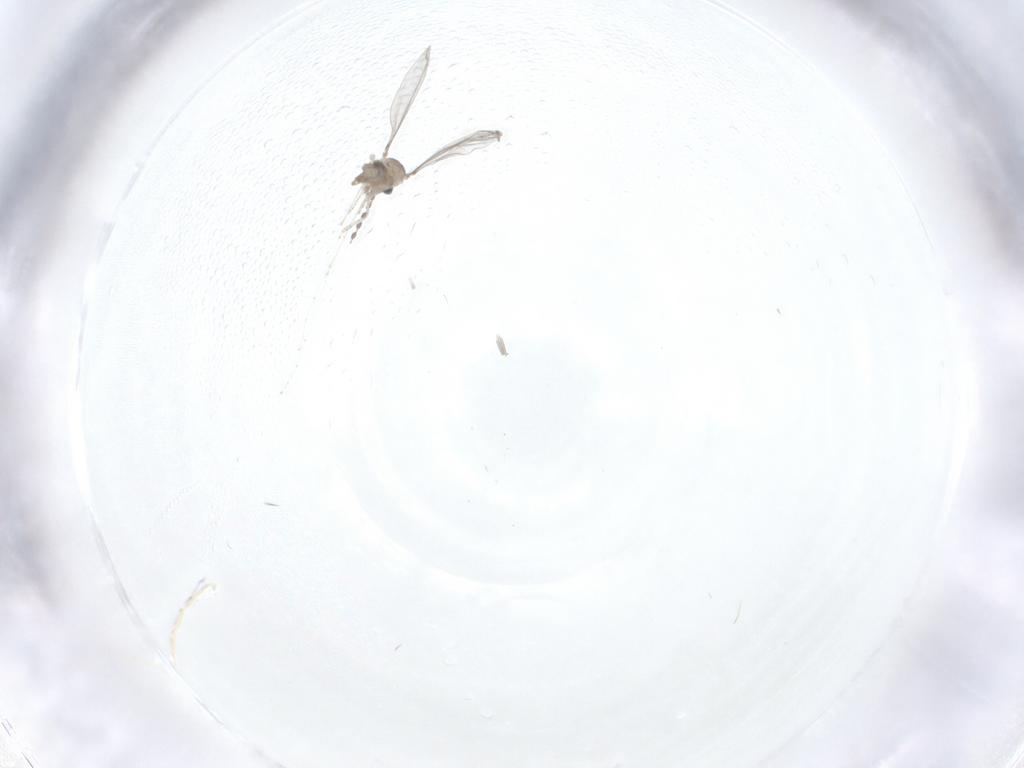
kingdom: Animalia
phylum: Arthropoda
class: Insecta
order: Diptera
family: Cecidomyiidae
